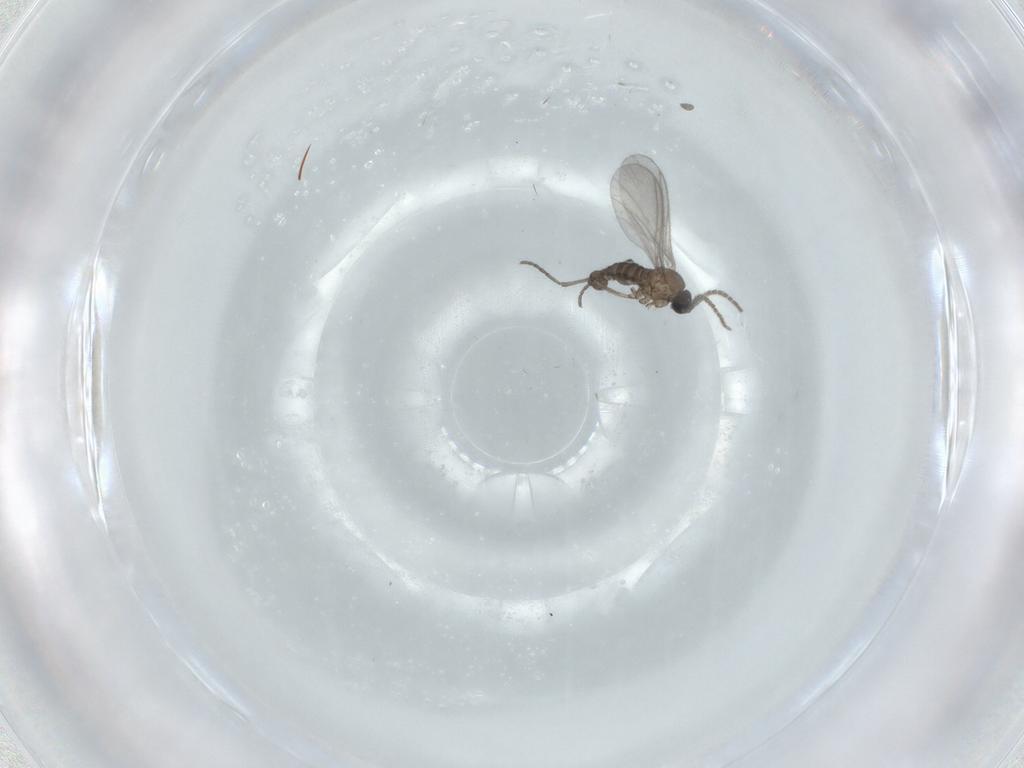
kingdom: Animalia
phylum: Arthropoda
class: Insecta
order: Diptera
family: Sciaridae
